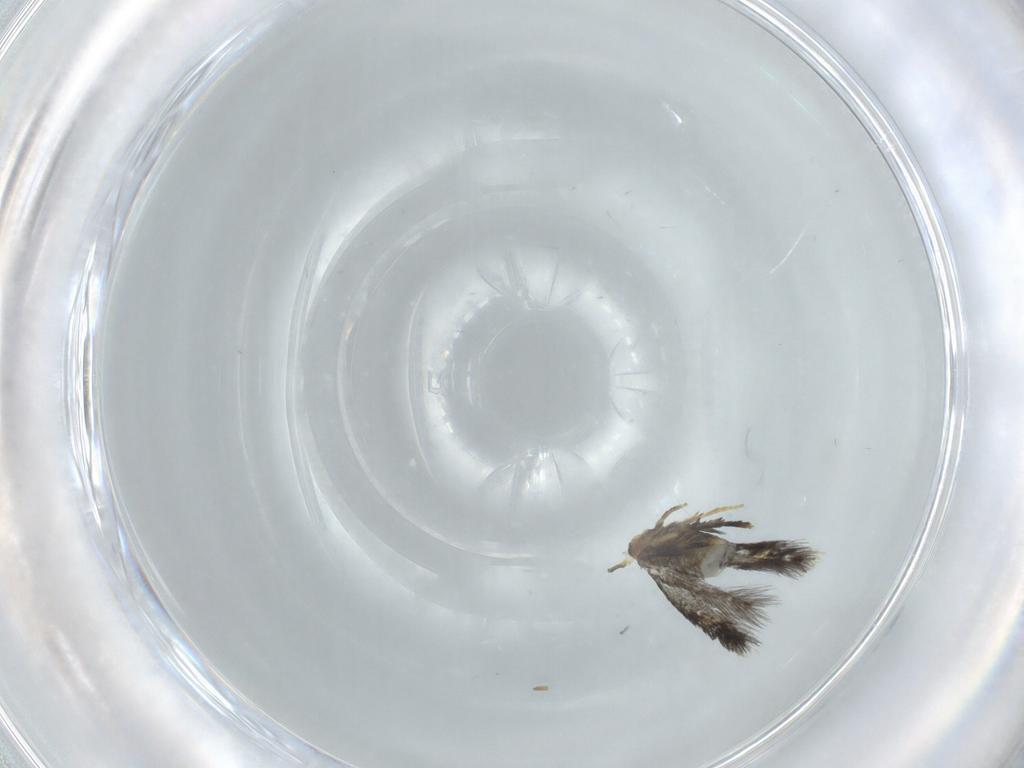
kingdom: Animalia
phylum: Arthropoda
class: Insecta
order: Lepidoptera
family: Nepticulidae
